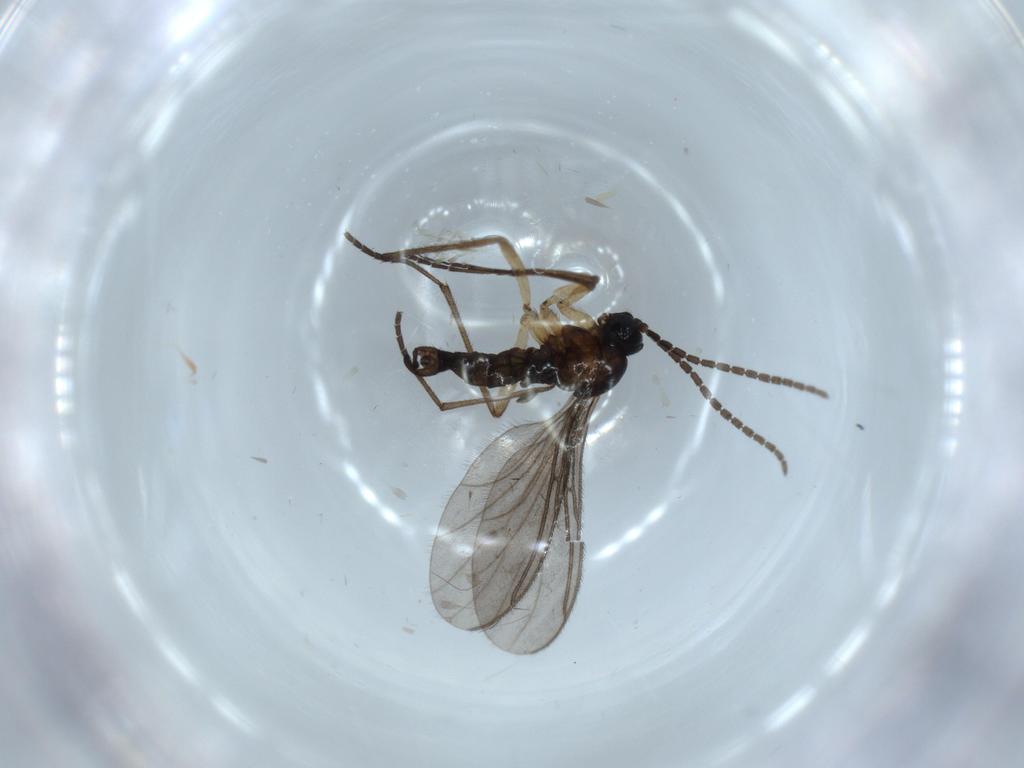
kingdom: Animalia
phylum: Arthropoda
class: Insecta
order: Diptera
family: Sciaridae
